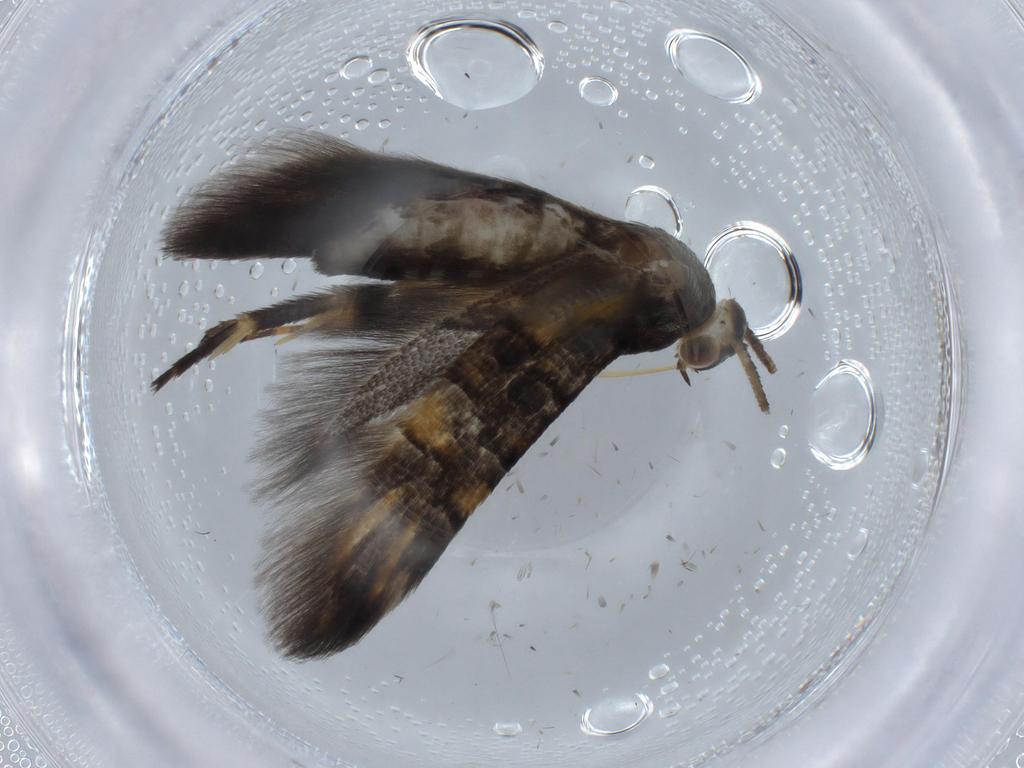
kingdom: Animalia
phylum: Arthropoda
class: Insecta
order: Lepidoptera
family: Heliodinidae
